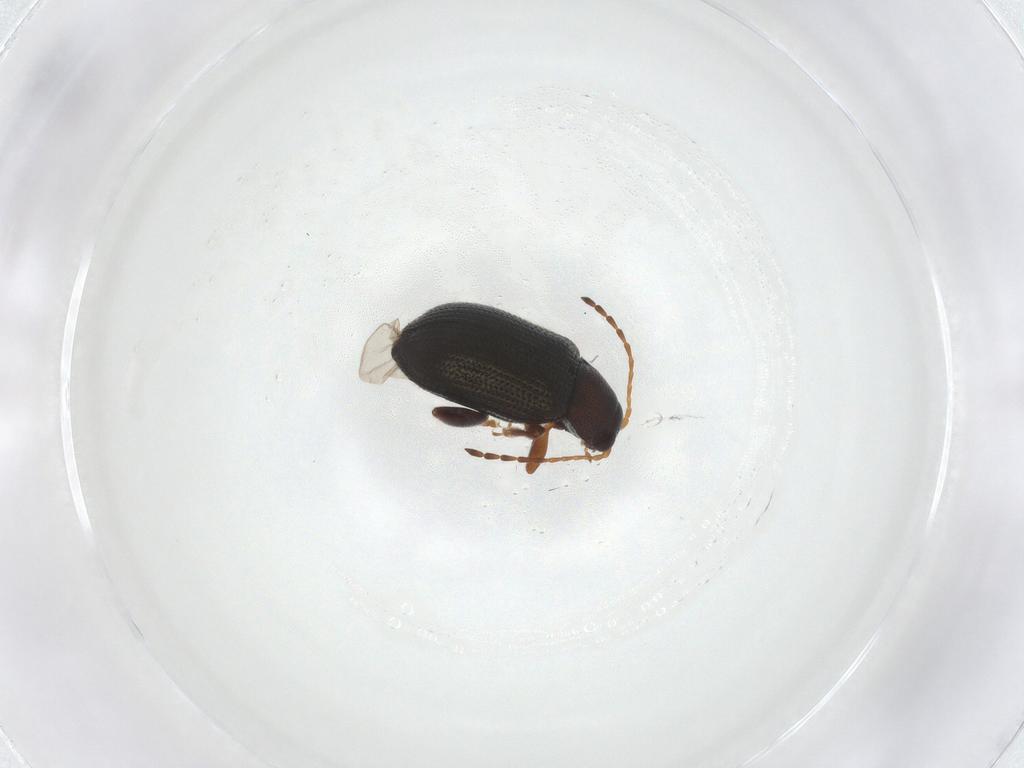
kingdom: Animalia
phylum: Arthropoda
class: Insecta
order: Coleoptera
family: Chrysomelidae
